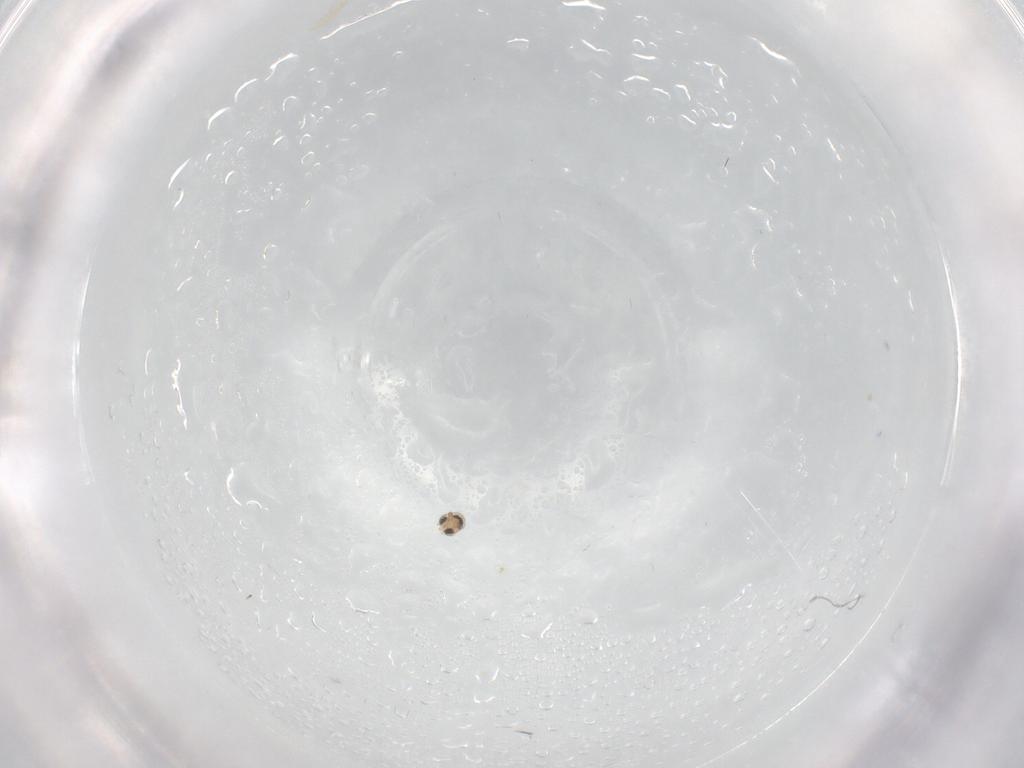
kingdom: Animalia
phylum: Arthropoda
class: Insecta
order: Diptera
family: Cecidomyiidae
